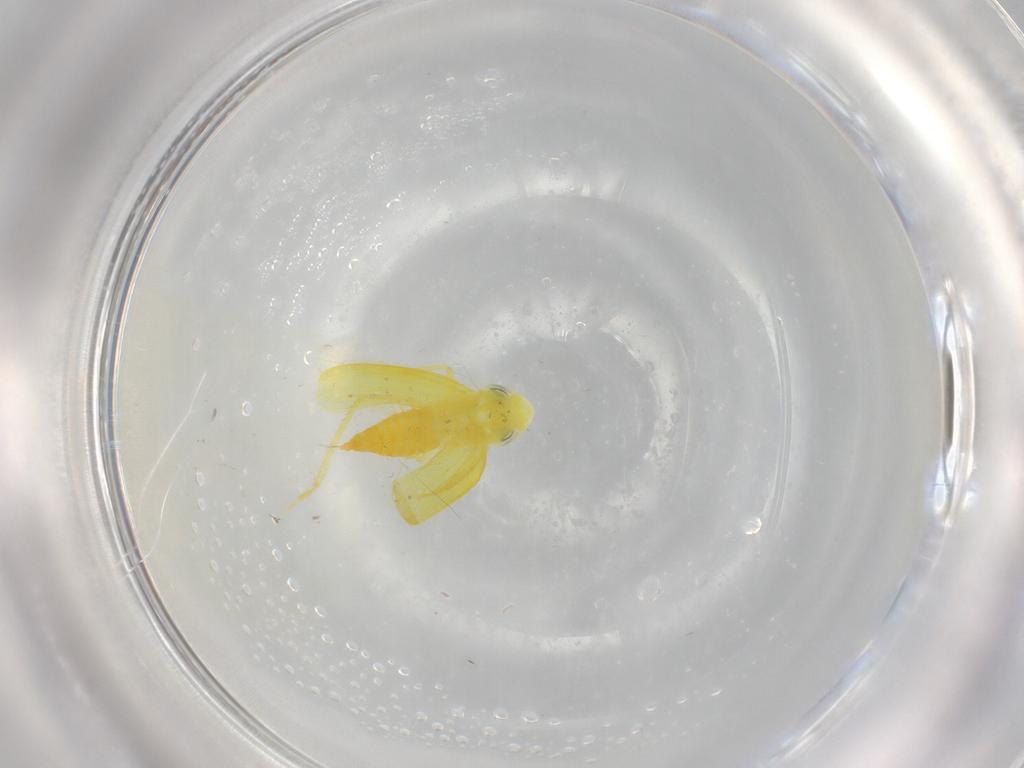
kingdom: Animalia
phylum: Arthropoda
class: Insecta
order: Hemiptera
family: Cicadellidae
